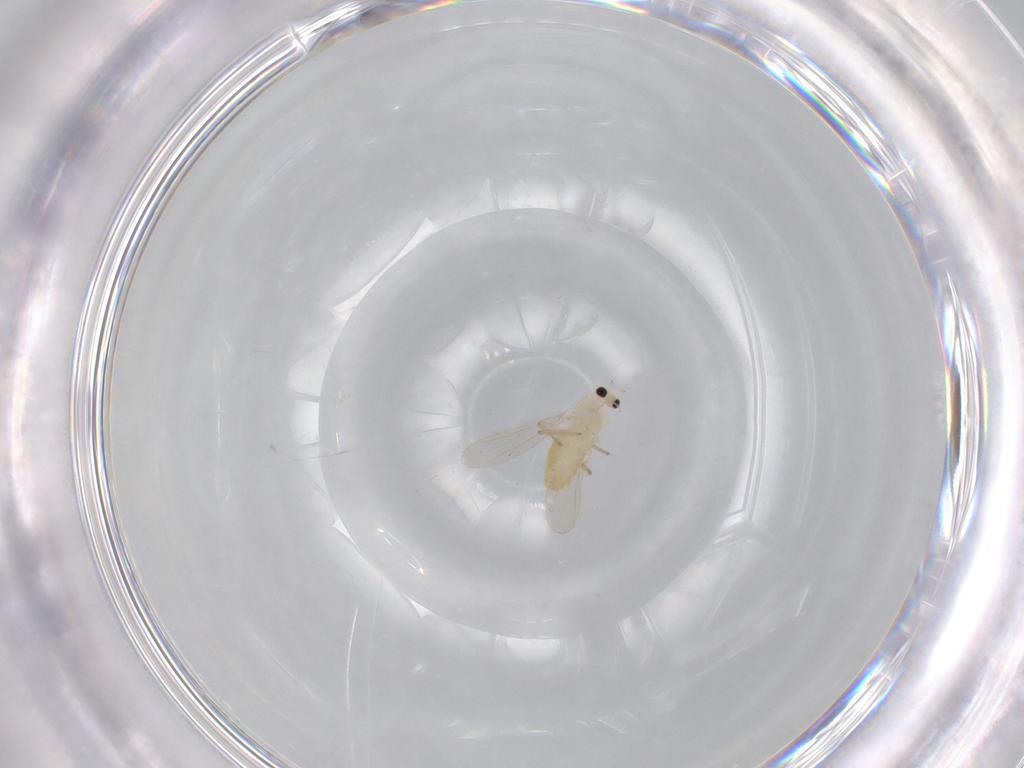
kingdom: Animalia
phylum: Arthropoda
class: Insecta
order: Diptera
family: Chironomidae
